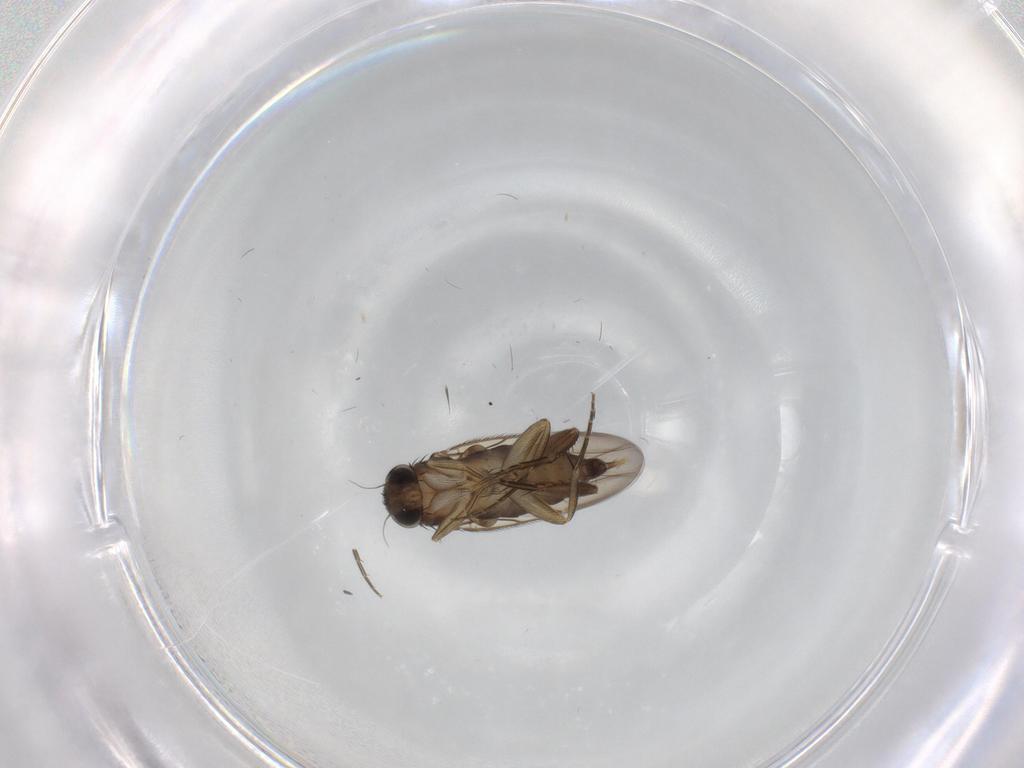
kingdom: Animalia
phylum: Arthropoda
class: Insecta
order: Diptera
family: Phoridae
